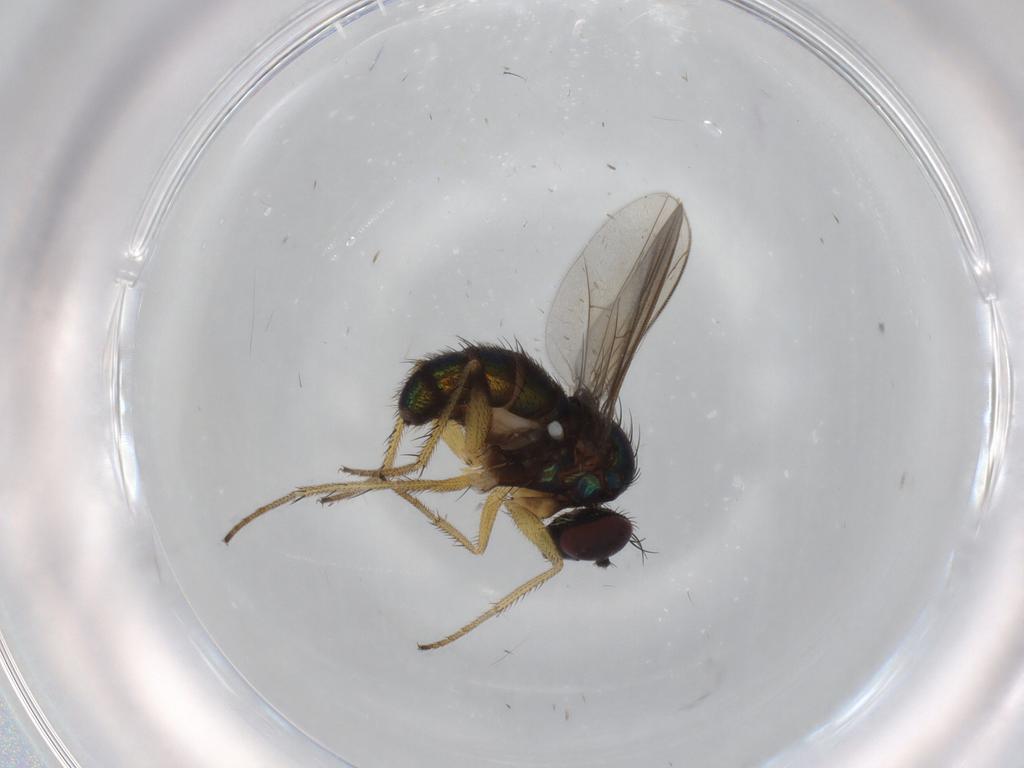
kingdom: Animalia
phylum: Arthropoda
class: Insecta
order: Diptera
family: Dolichopodidae
